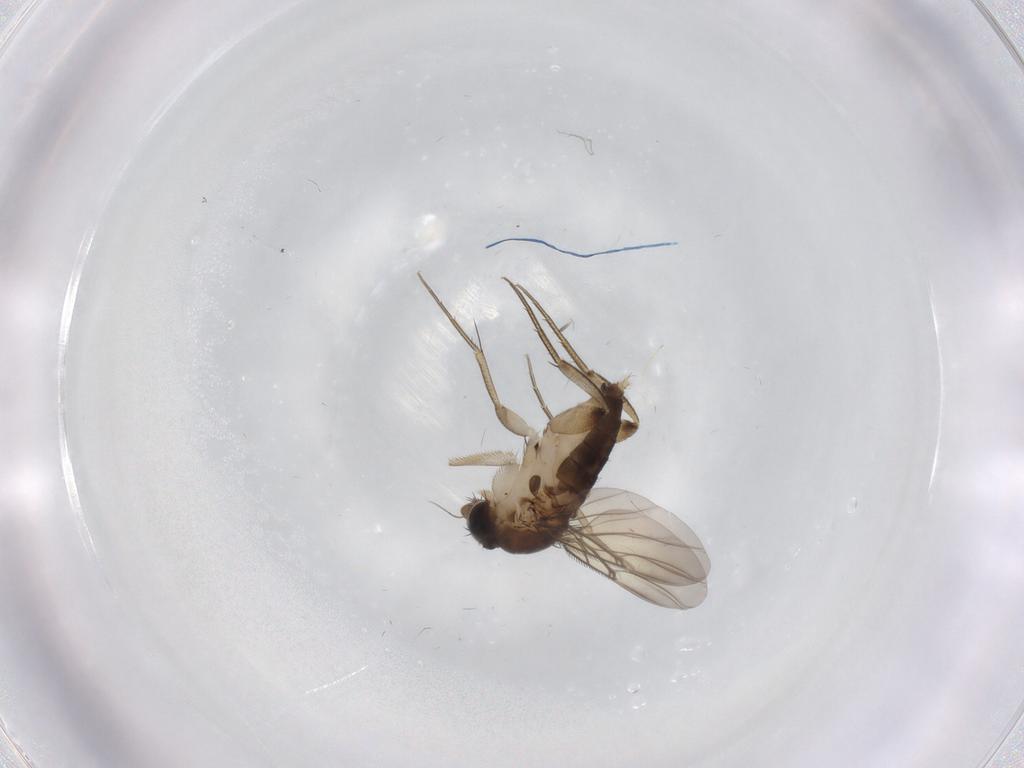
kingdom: Animalia
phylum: Arthropoda
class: Insecta
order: Diptera
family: Phoridae
